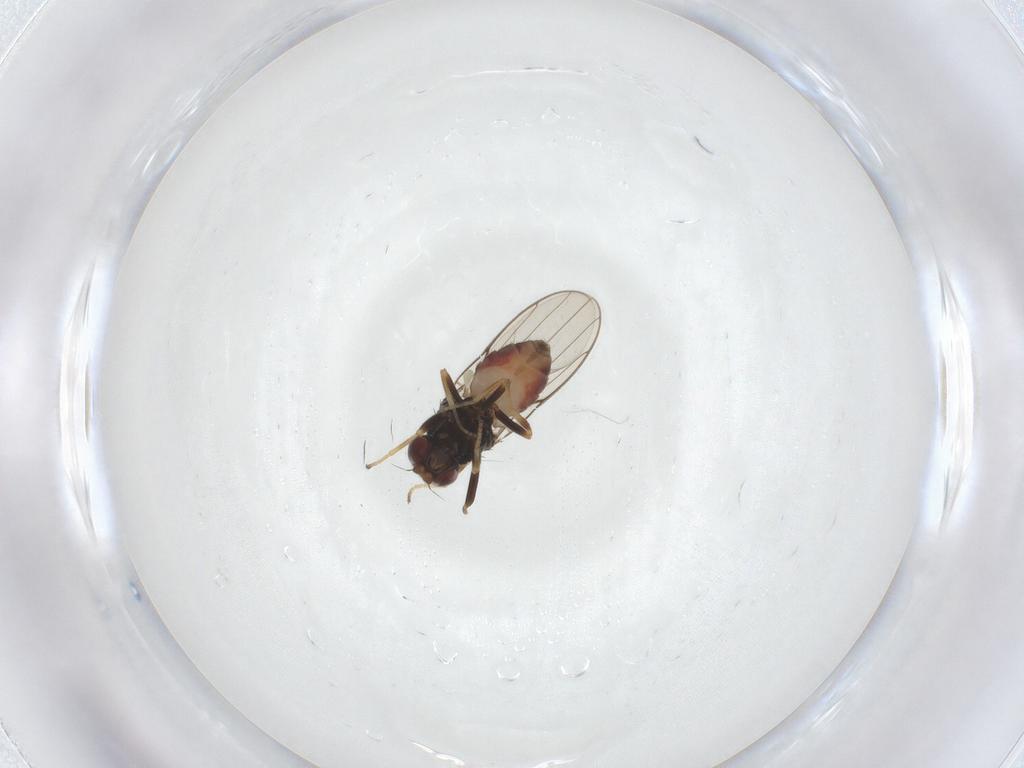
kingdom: Animalia
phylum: Arthropoda
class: Insecta
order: Diptera
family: Chloropidae
